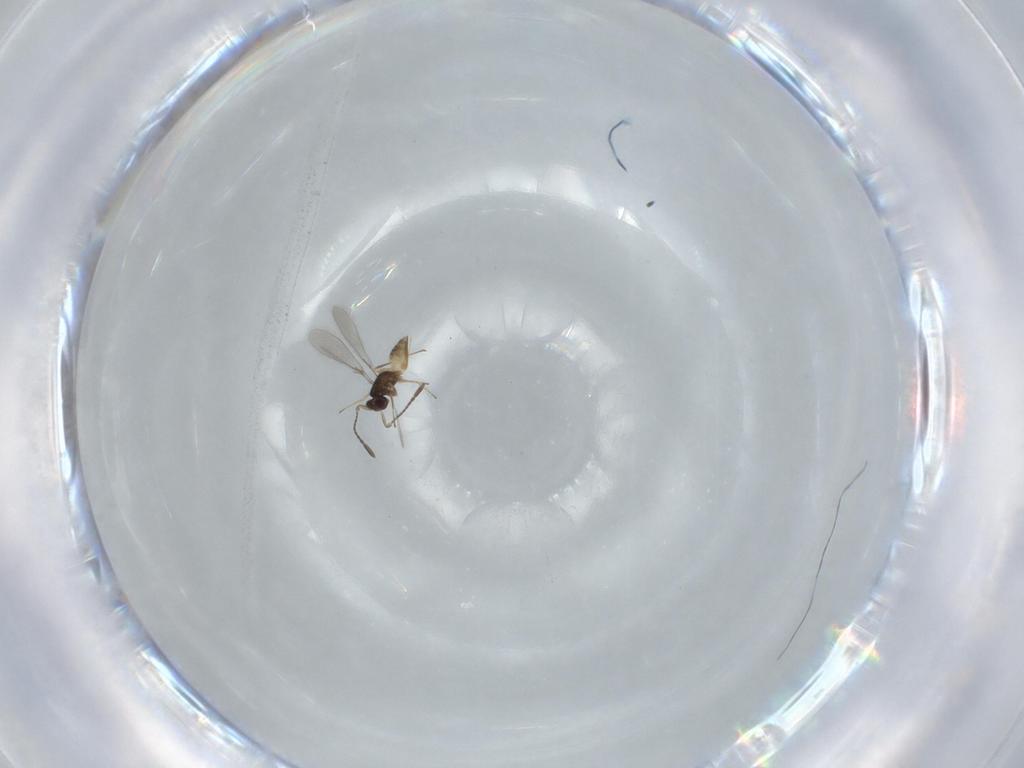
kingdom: Animalia
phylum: Arthropoda
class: Insecta
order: Hymenoptera
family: Mymaridae
